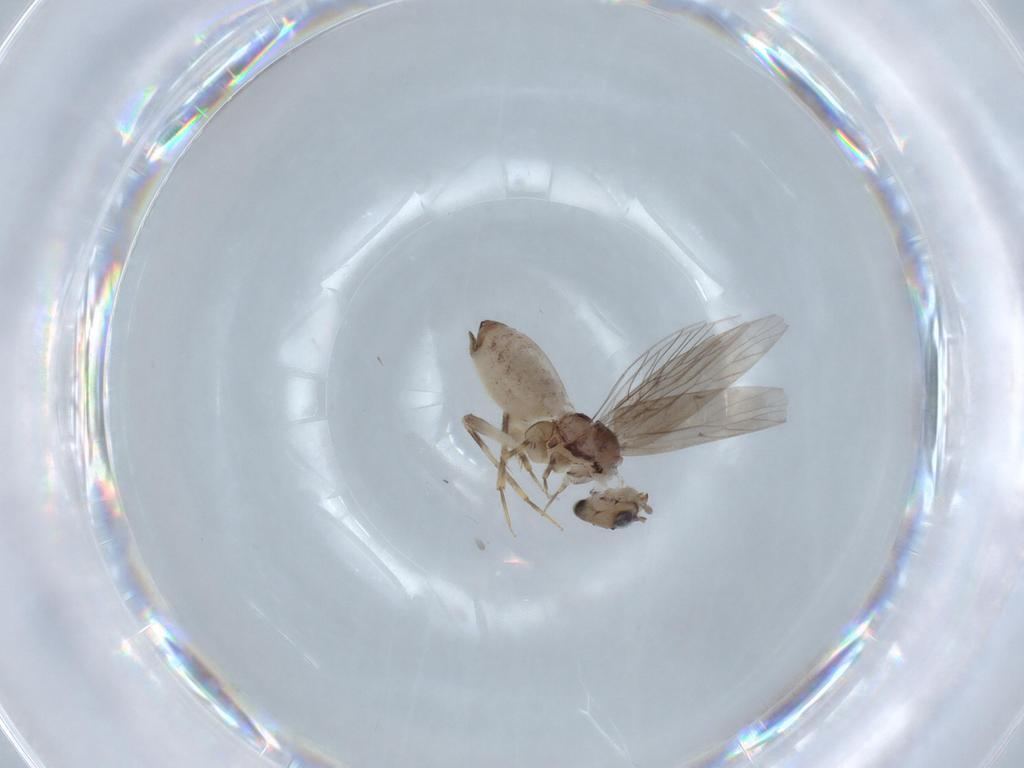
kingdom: Animalia
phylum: Arthropoda
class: Insecta
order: Psocodea
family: Lepidopsocidae
